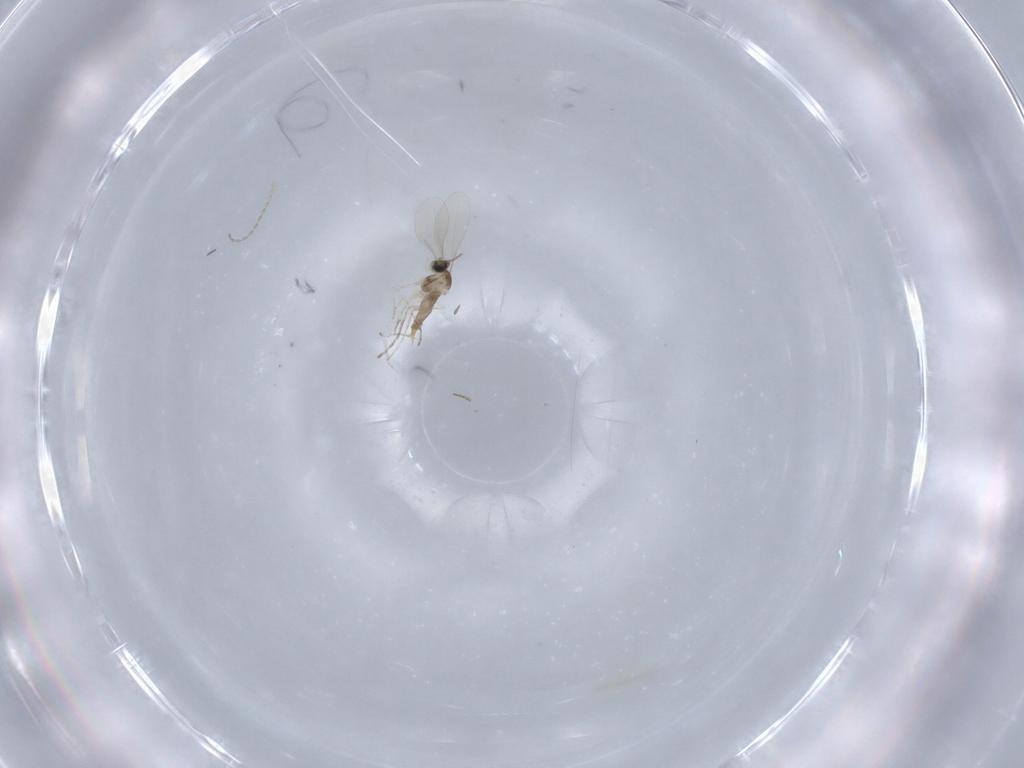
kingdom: Animalia
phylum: Arthropoda
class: Insecta
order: Diptera
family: Cecidomyiidae
